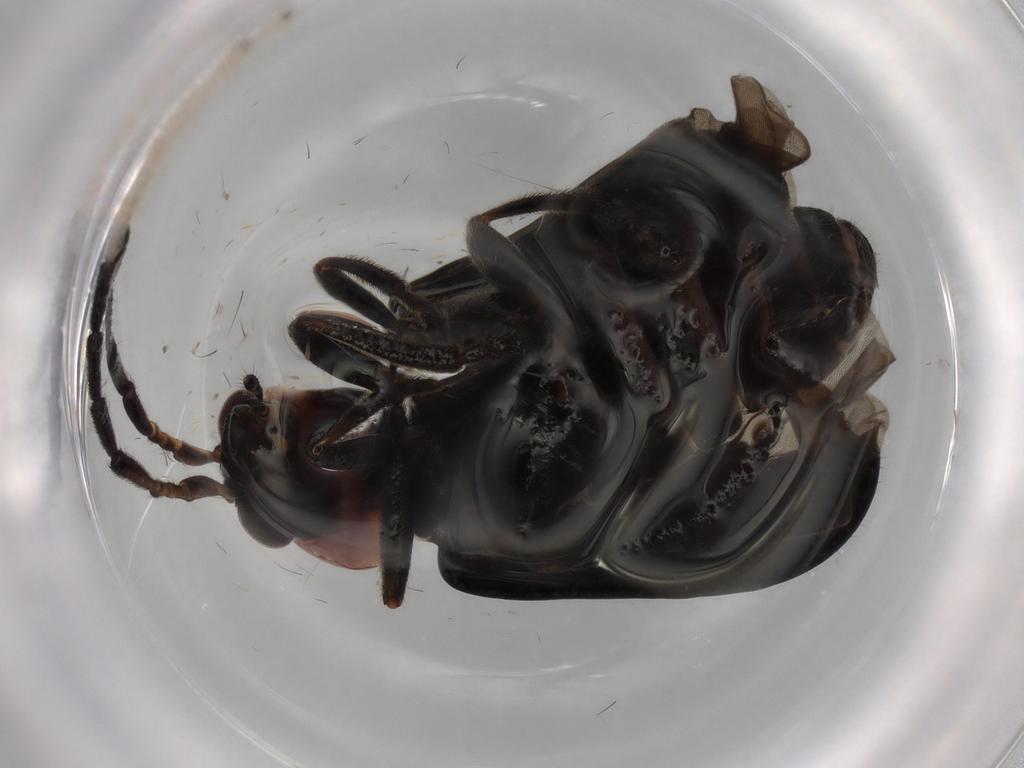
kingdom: Animalia
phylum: Arthropoda
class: Insecta
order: Coleoptera
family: Chrysomelidae
